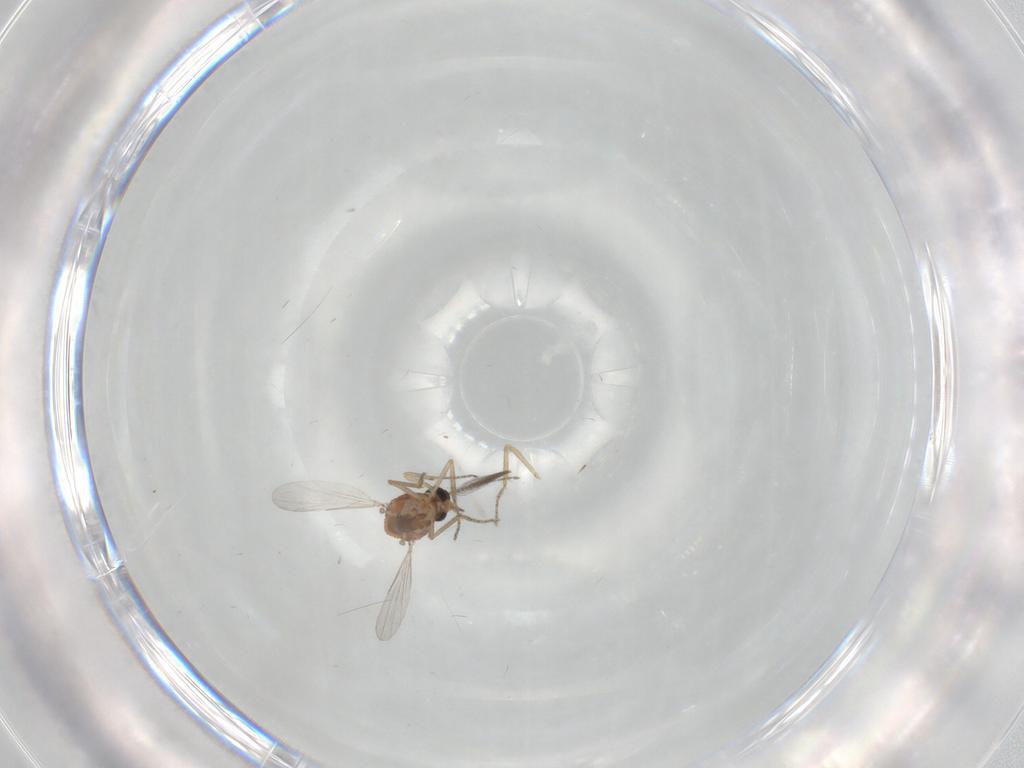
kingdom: Animalia
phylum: Arthropoda
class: Insecta
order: Diptera
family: Ceratopogonidae
